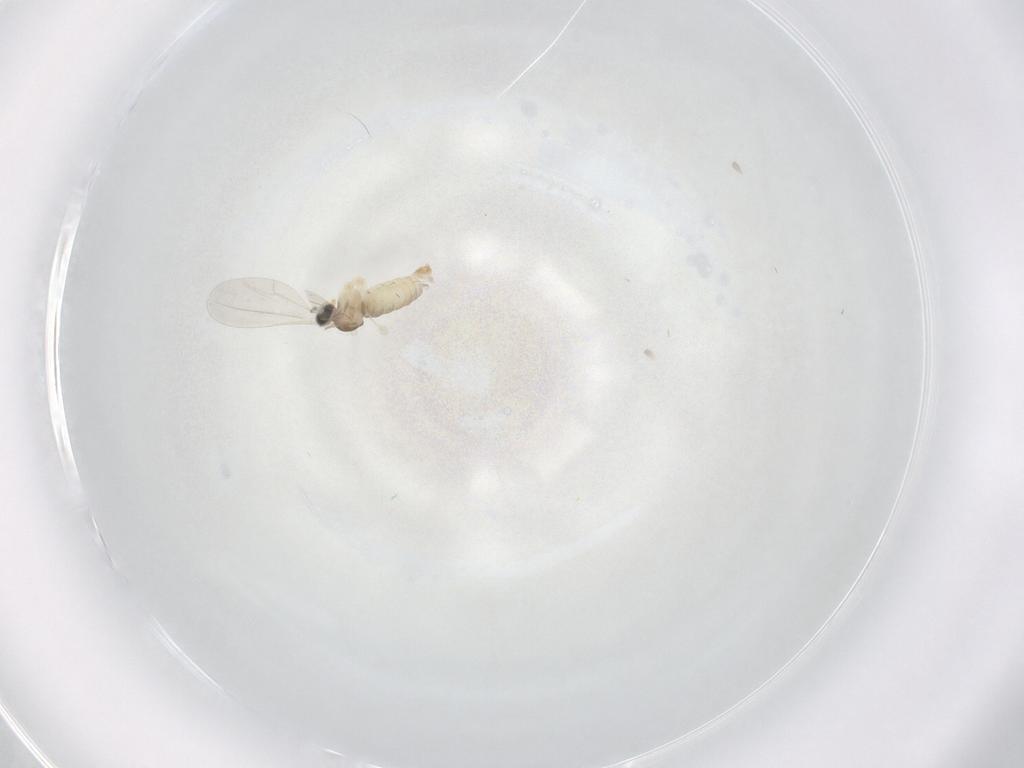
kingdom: Animalia
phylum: Arthropoda
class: Insecta
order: Diptera
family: Cecidomyiidae
